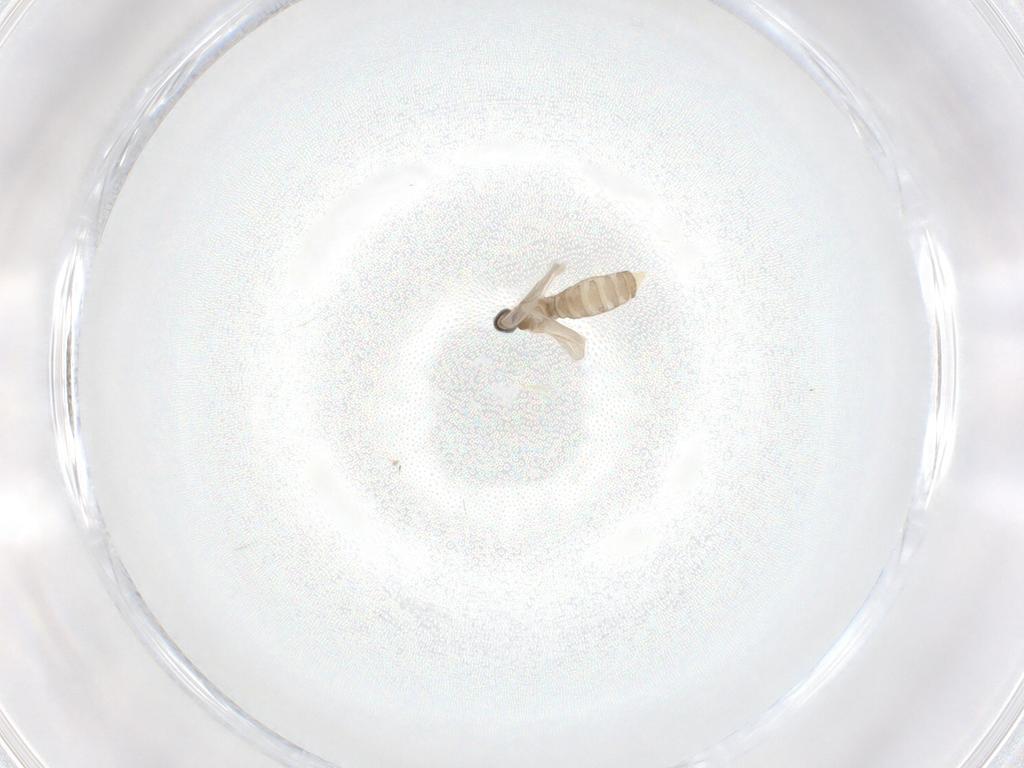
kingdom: Animalia
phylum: Arthropoda
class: Insecta
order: Diptera
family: Cecidomyiidae
